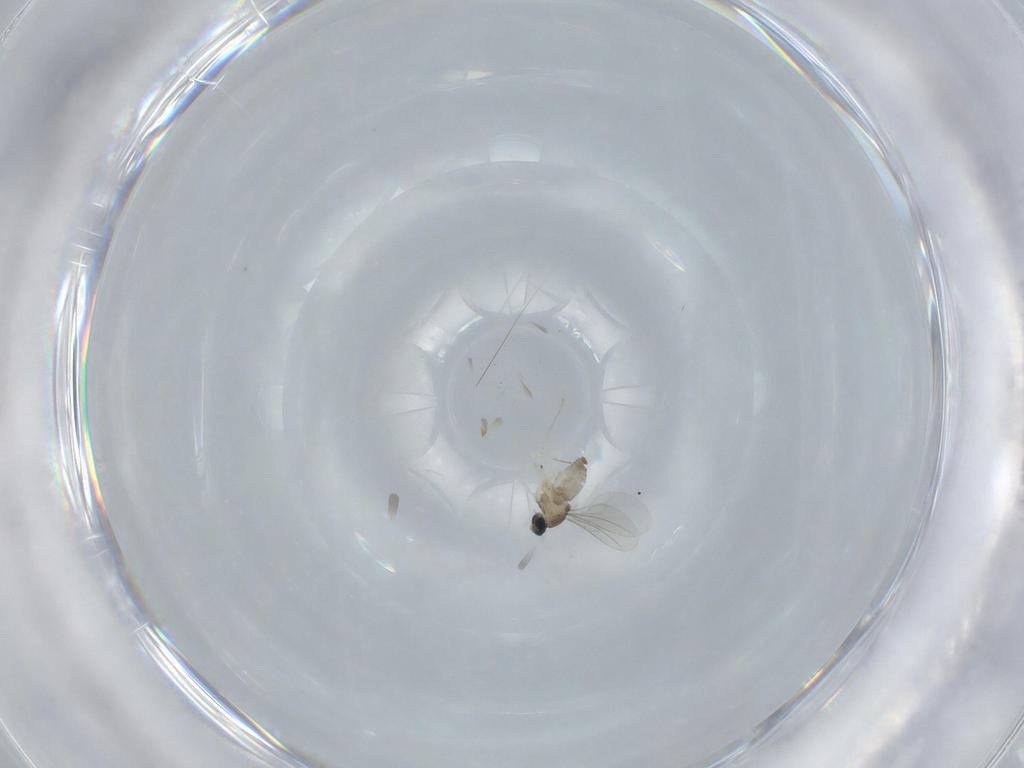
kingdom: Animalia
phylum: Arthropoda
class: Insecta
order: Diptera
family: Cecidomyiidae
